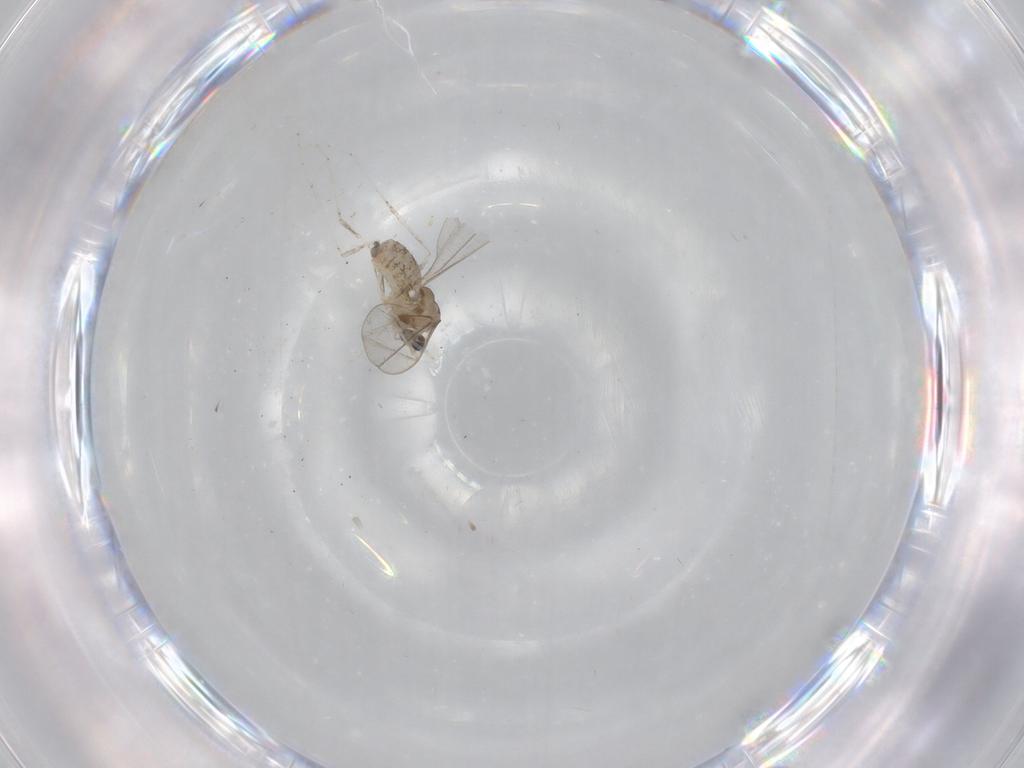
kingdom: Animalia
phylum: Arthropoda
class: Insecta
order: Diptera
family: Cecidomyiidae
